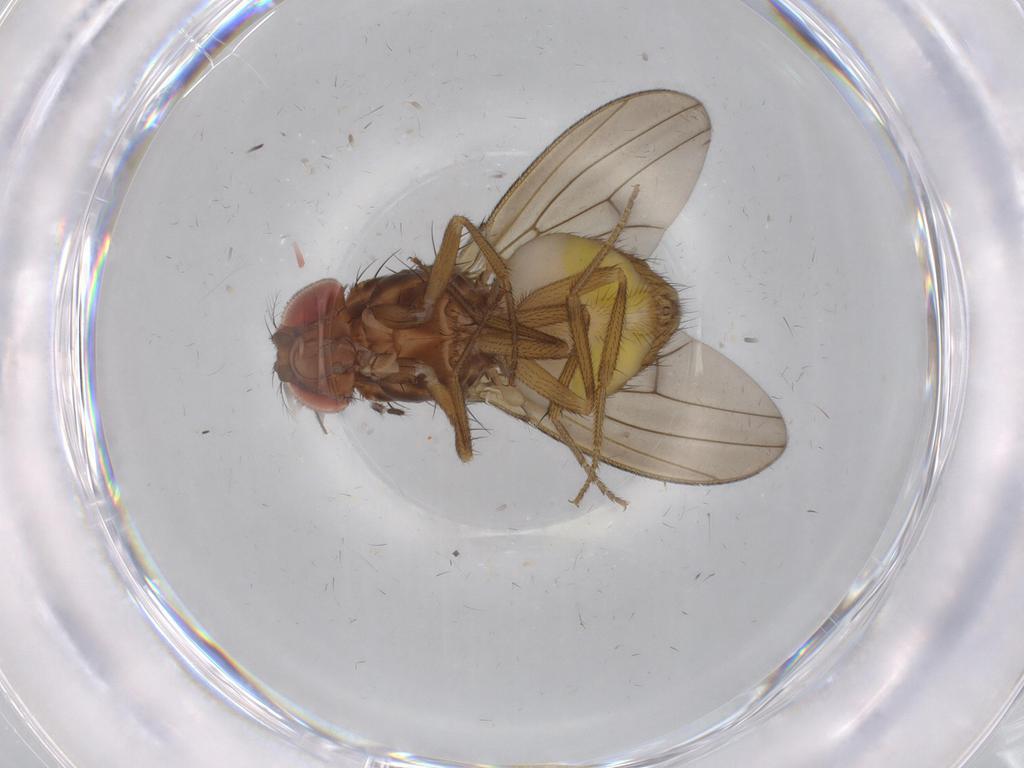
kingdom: Animalia
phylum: Arthropoda
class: Insecta
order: Diptera
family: Drosophilidae
